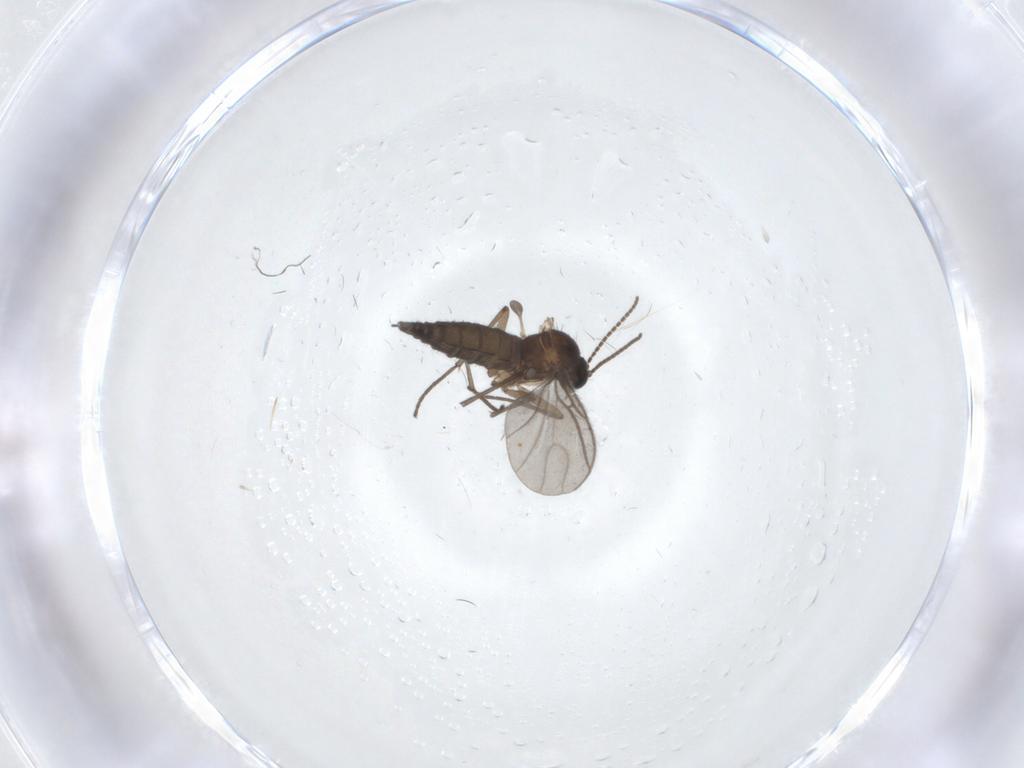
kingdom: Animalia
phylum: Arthropoda
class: Insecta
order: Diptera
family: Sciaridae
